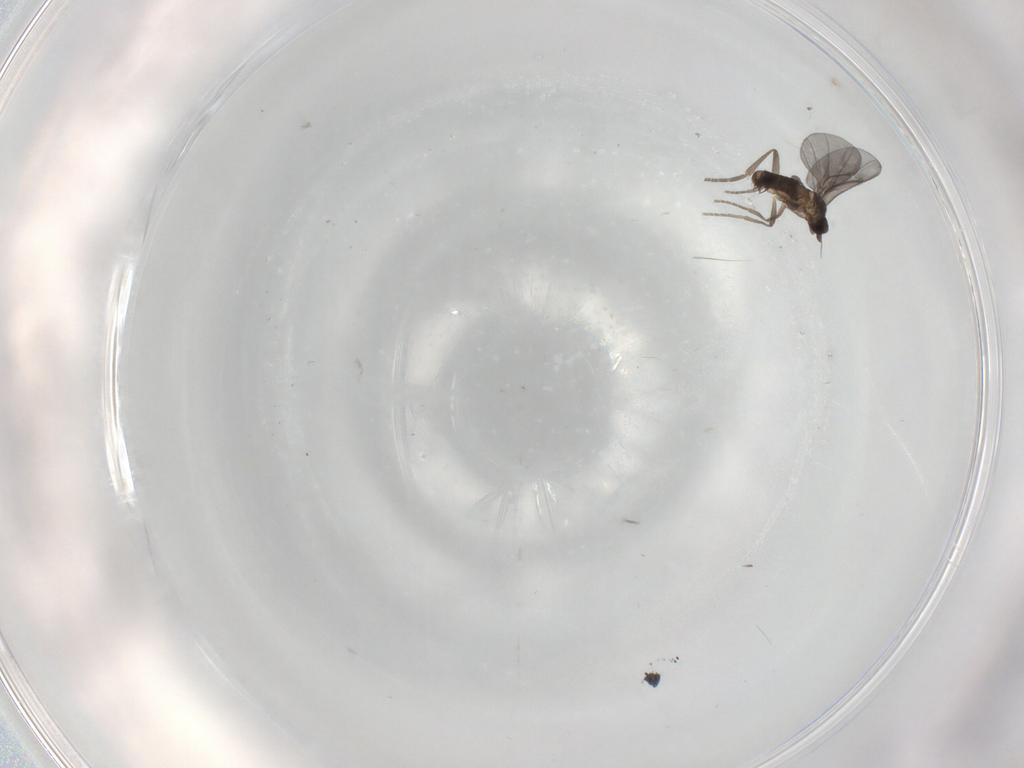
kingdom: Animalia
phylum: Arthropoda
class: Insecta
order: Diptera
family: Phoridae
